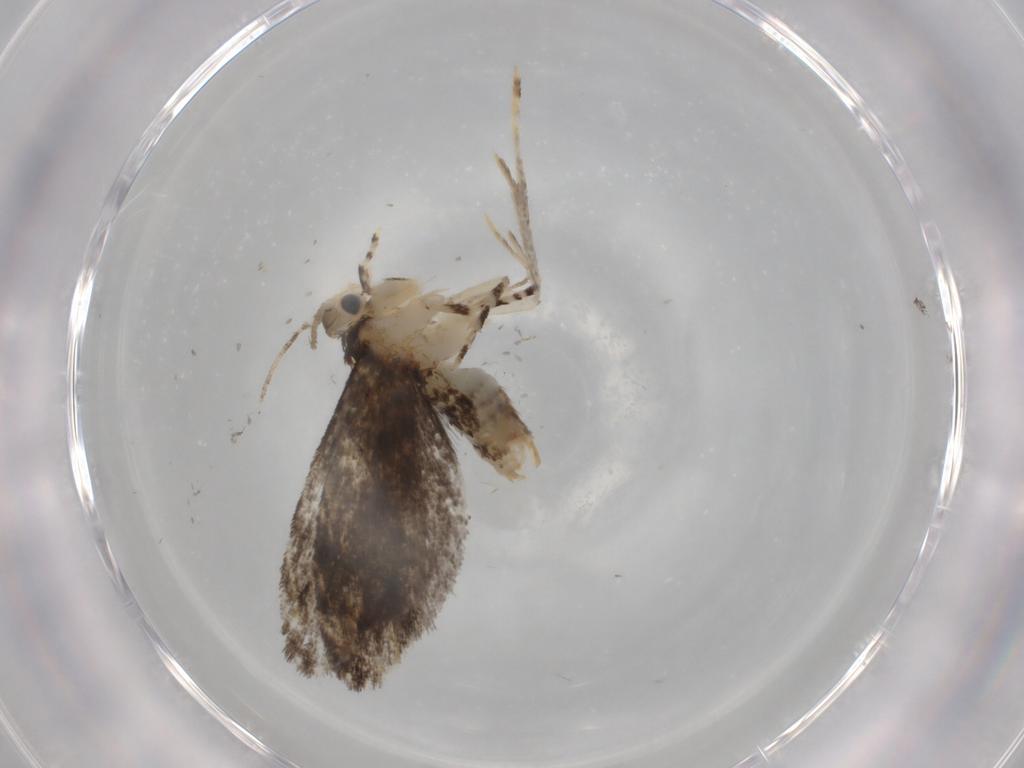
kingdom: Animalia
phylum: Arthropoda
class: Insecta
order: Lepidoptera
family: Tineidae
